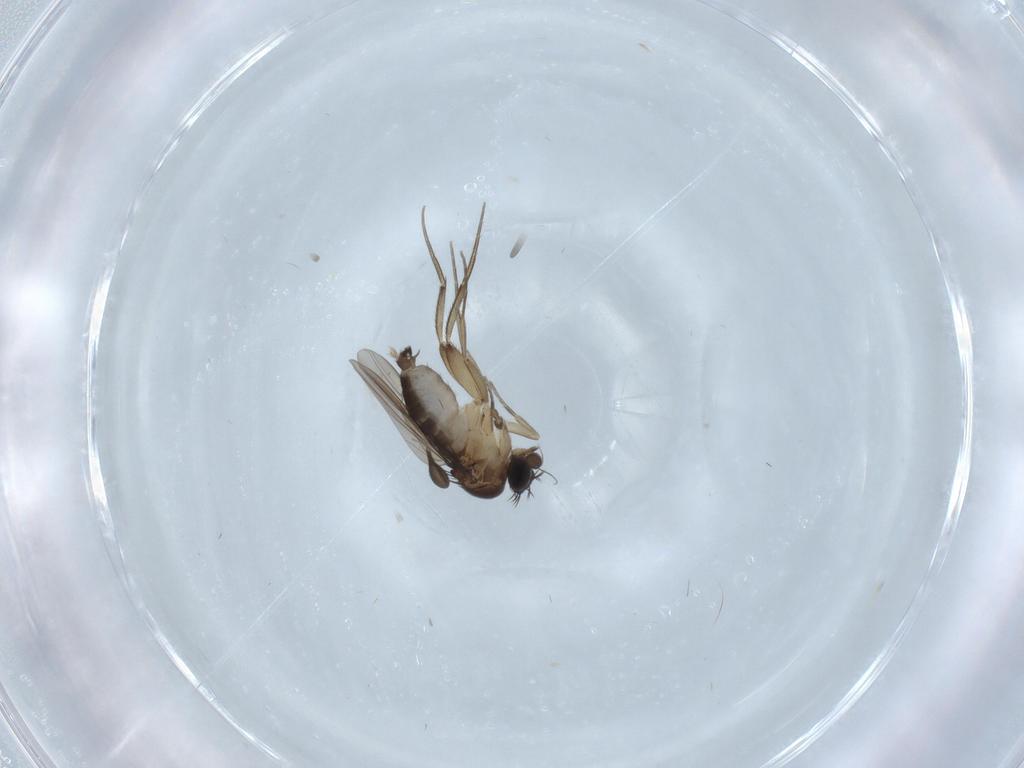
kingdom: Animalia
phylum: Arthropoda
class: Insecta
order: Diptera
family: Phoridae
